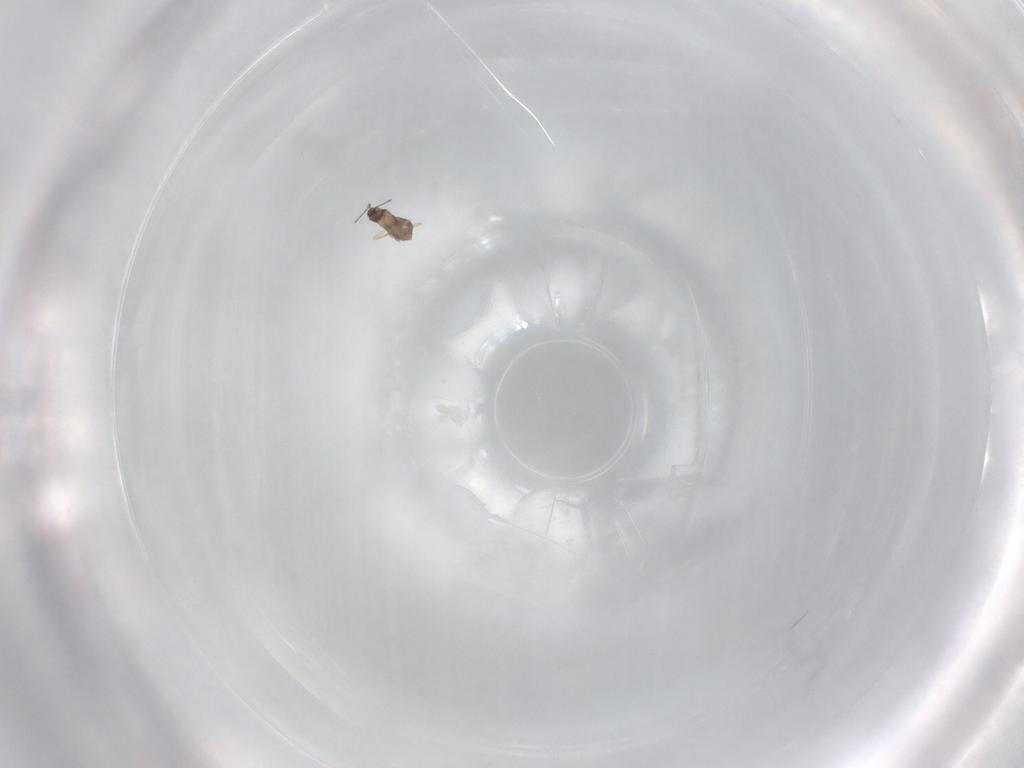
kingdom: Animalia
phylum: Arthropoda
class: Insecta
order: Hymenoptera
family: Mymaridae
